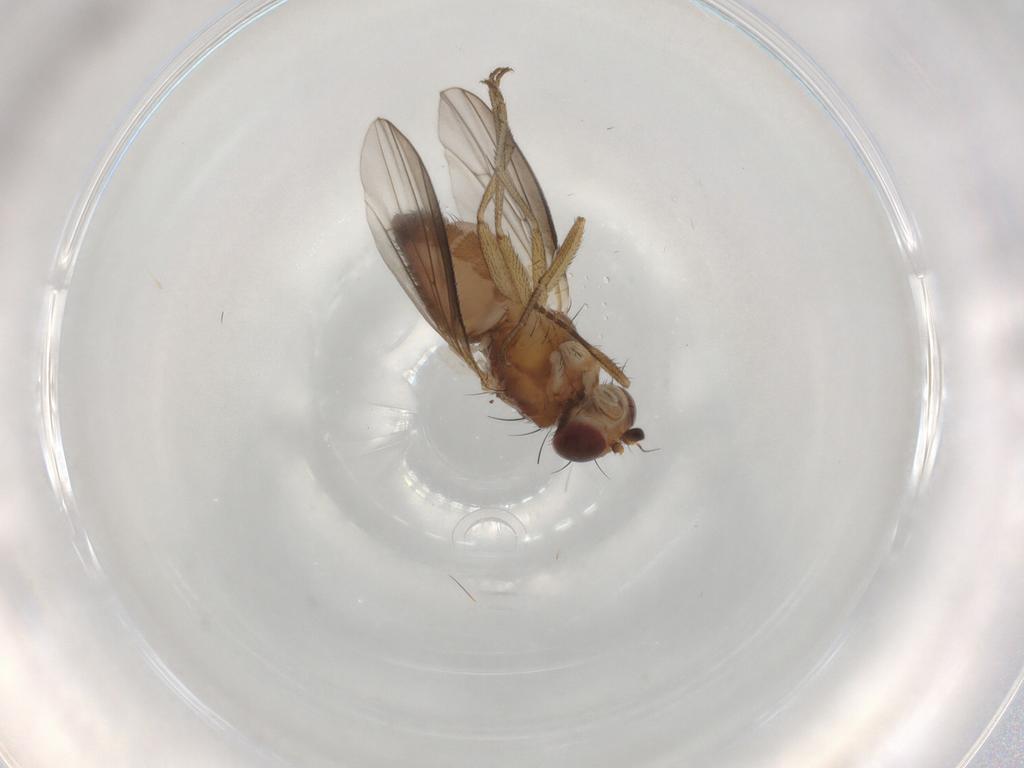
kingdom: Animalia
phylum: Arthropoda
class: Insecta
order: Diptera
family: Heleomyzidae
